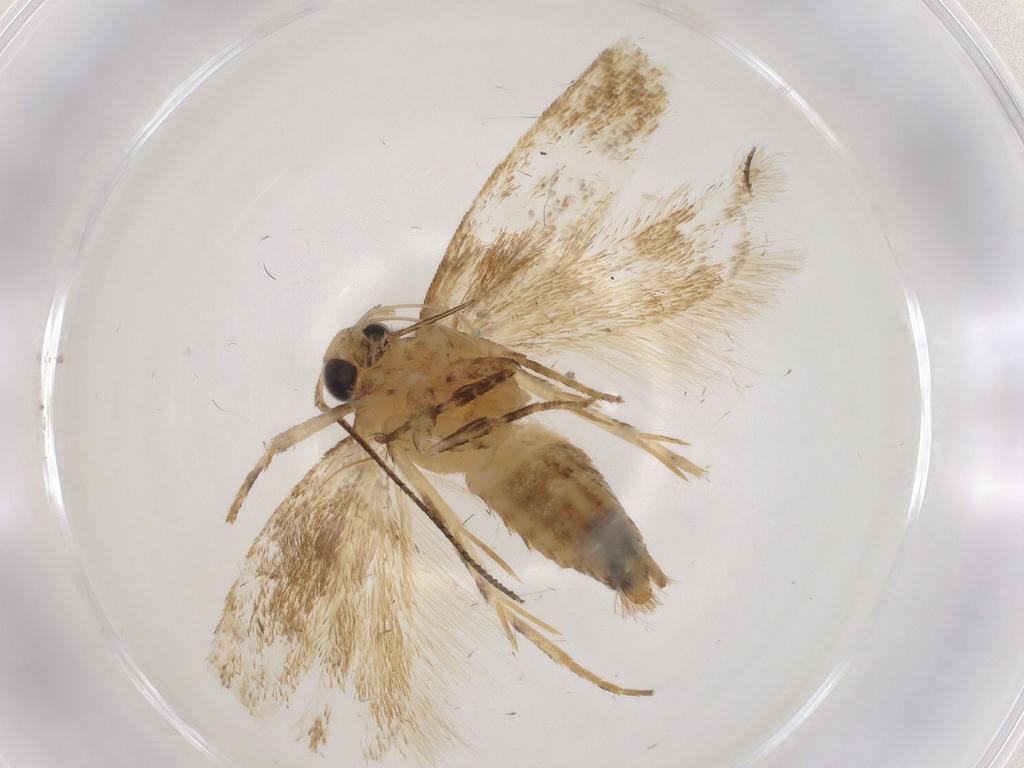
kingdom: Animalia
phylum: Arthropoda
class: Insecta
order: Lepidoptera
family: Gelechiidae
